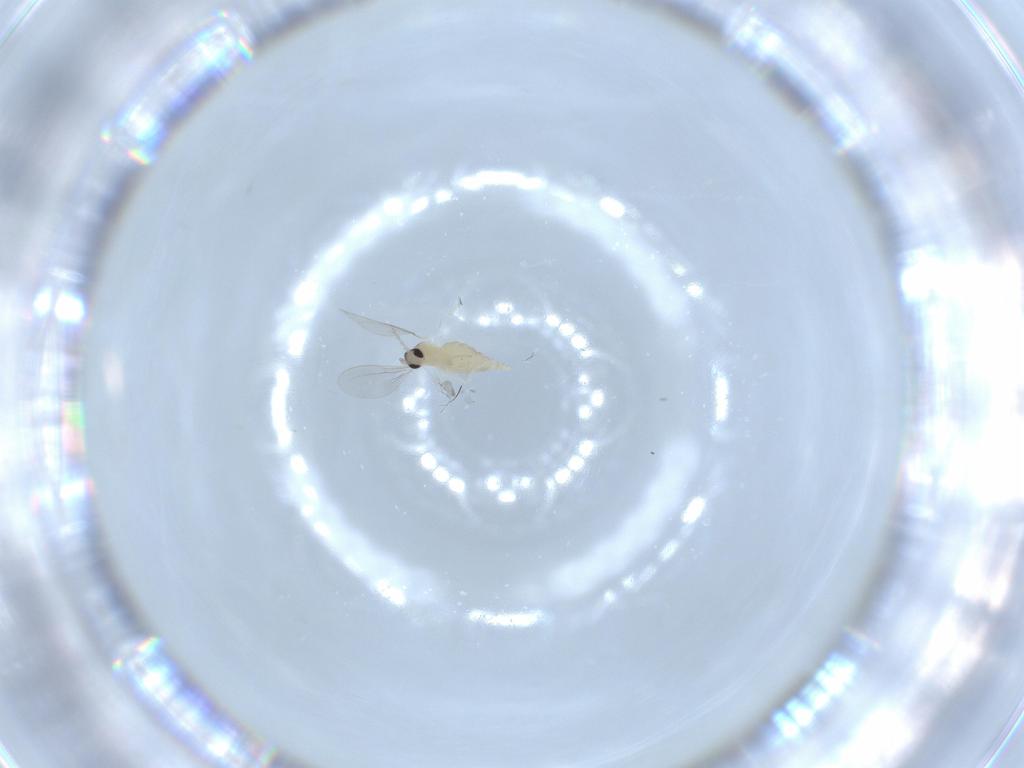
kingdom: Animalia
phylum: Arthropoda
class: Insecta
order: Diptera
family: Cecidomyiidae
